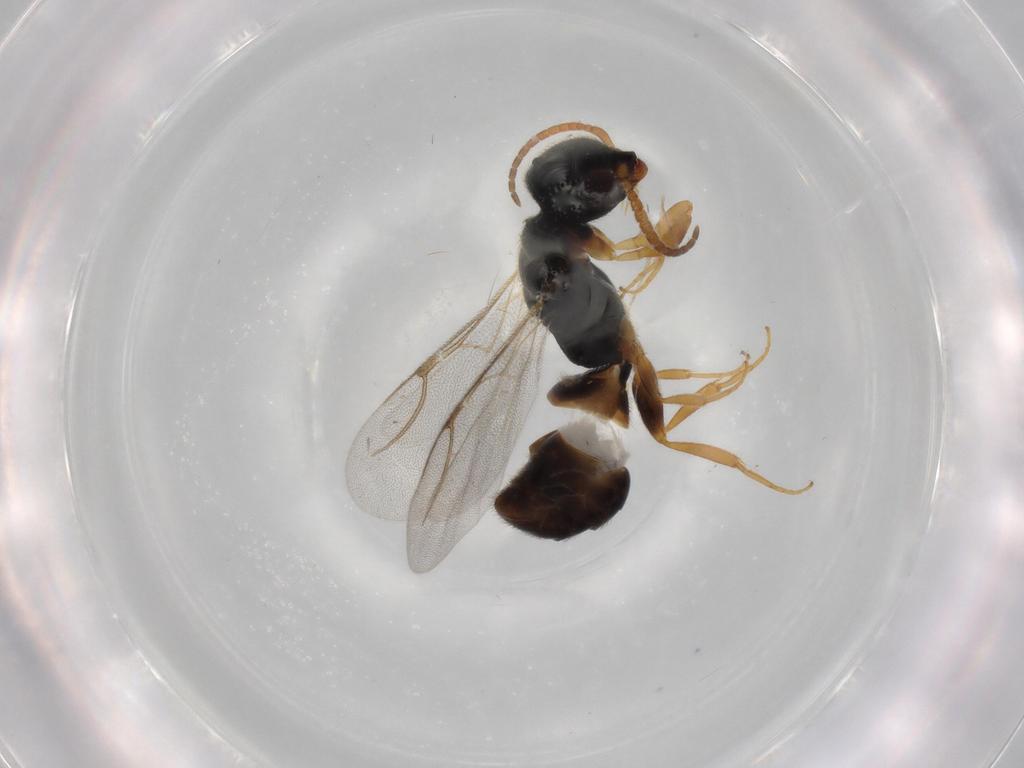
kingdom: Animalia
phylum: Arthropoda
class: Insecta
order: Hymenoptera
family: Bethylidae
